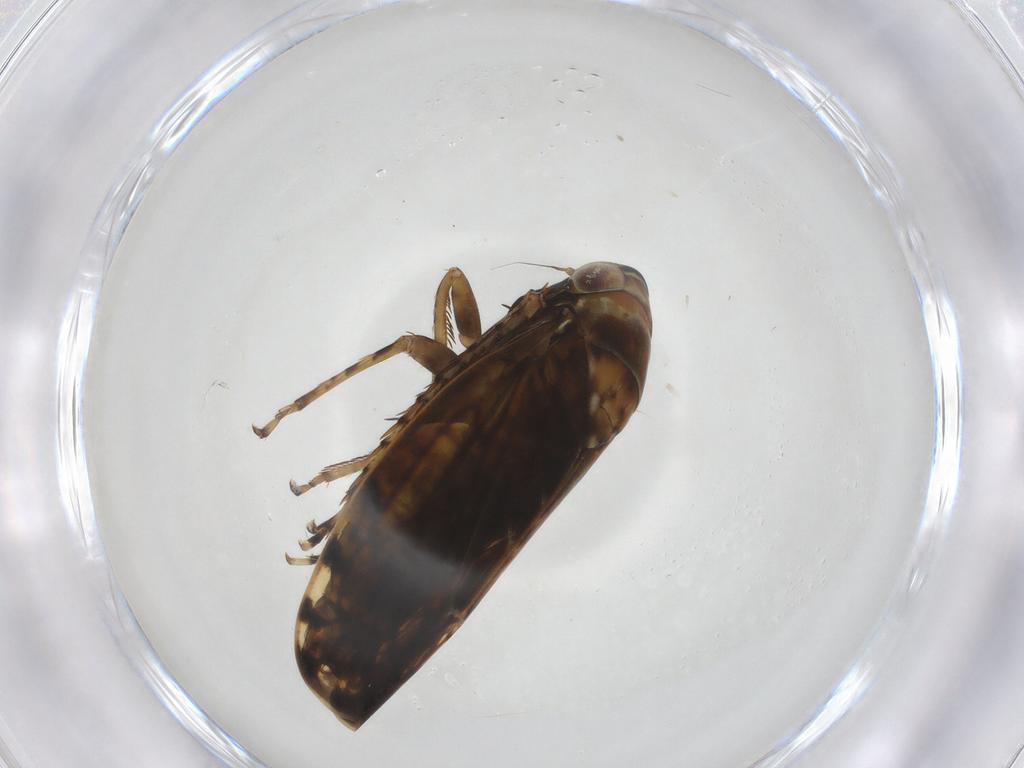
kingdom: Animalia
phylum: Arthropoda
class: Insecta
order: Hemiptera
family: Cicadellidae
